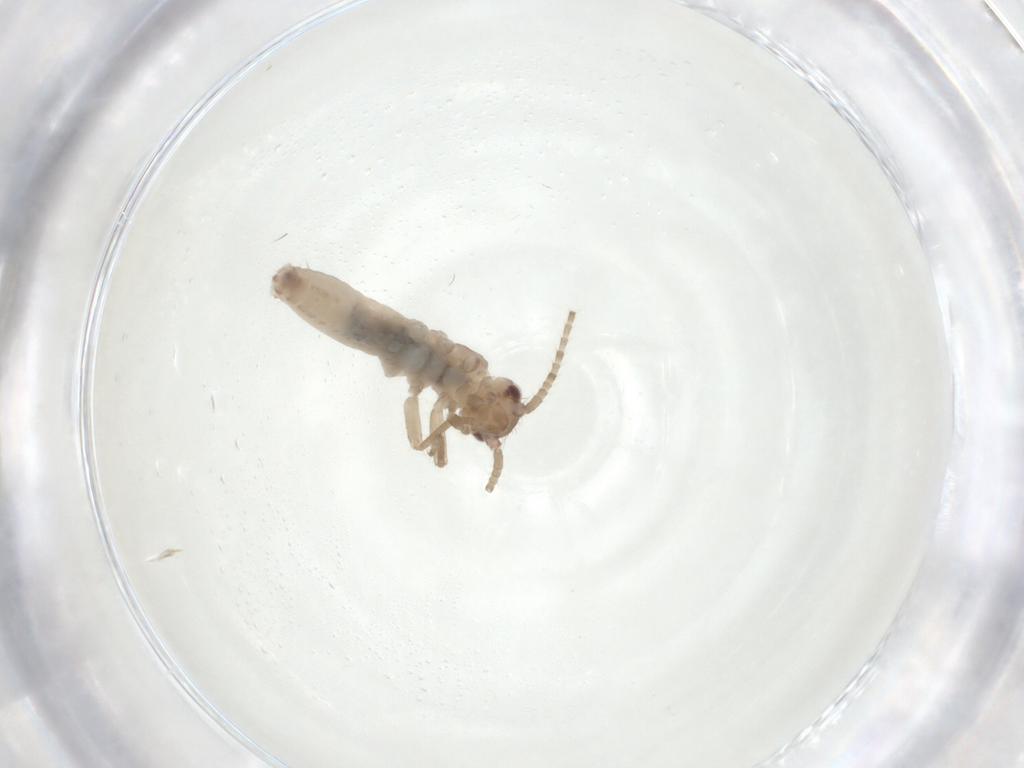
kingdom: Animalia
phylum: Arthropoda
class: Insecta
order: Orthoptera
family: Mogoplistidae
